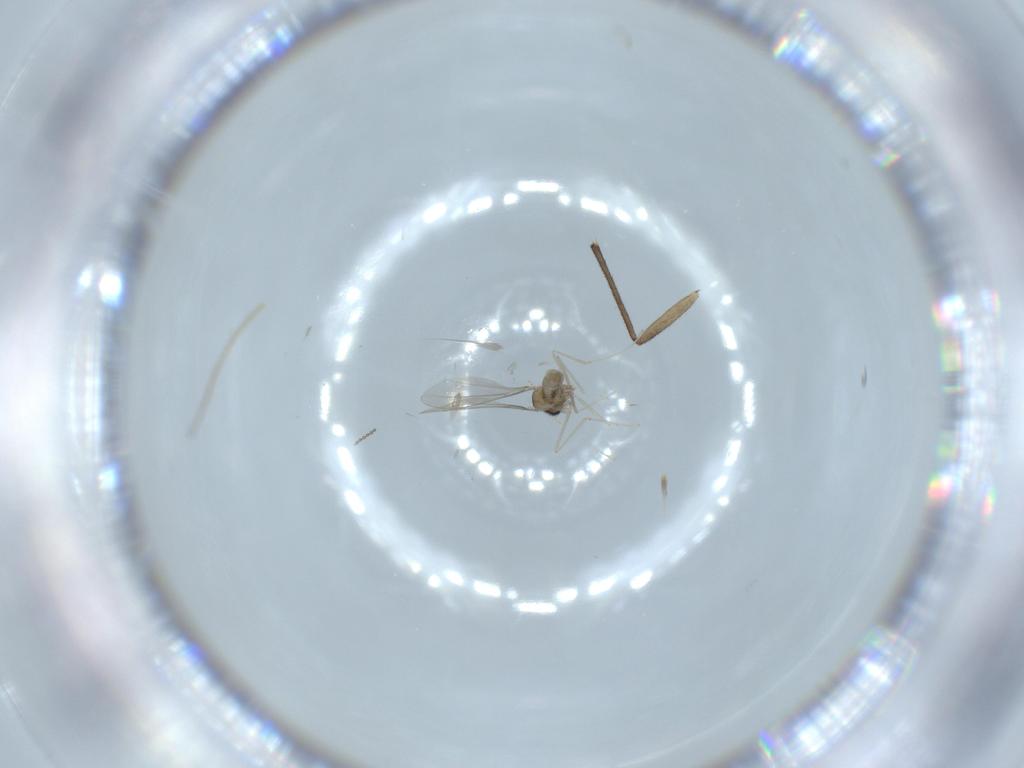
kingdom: Animalia
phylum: Arthropoda
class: Insecta
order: Diptera
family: Cecidomyiidae
